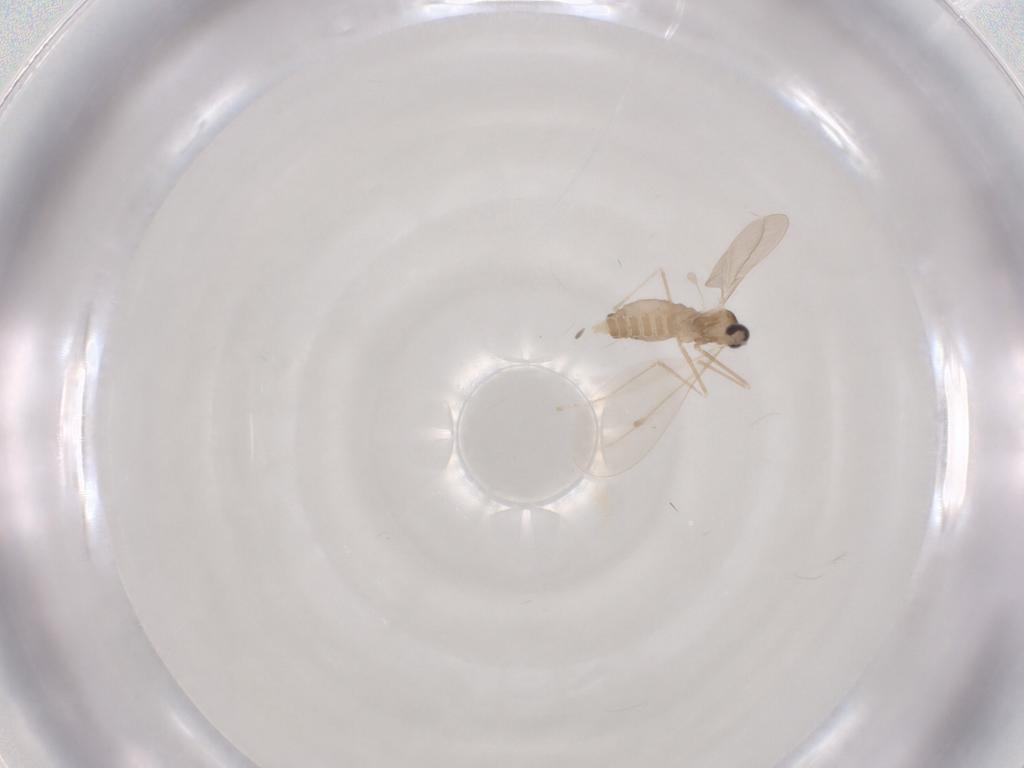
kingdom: Animalia
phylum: Arthropoda
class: Insecta
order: Diptera
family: Cecidomyiidae
